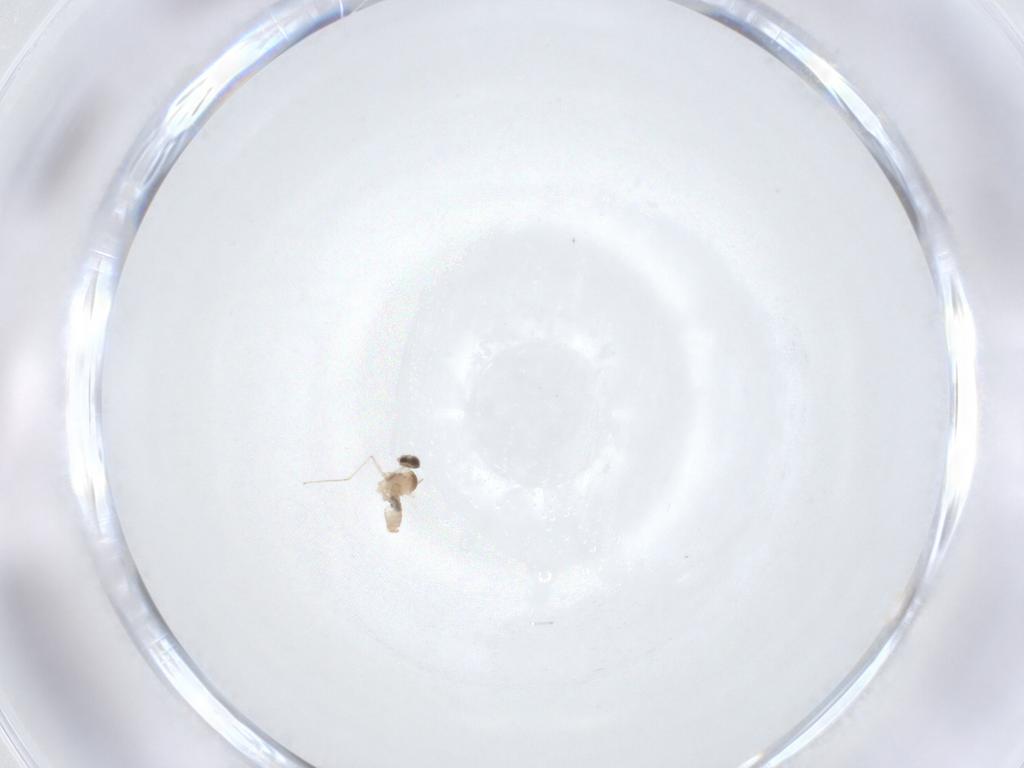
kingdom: Animalia
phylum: Arthropoda
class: Insecta
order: Diptera
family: Cecidomyiidae
